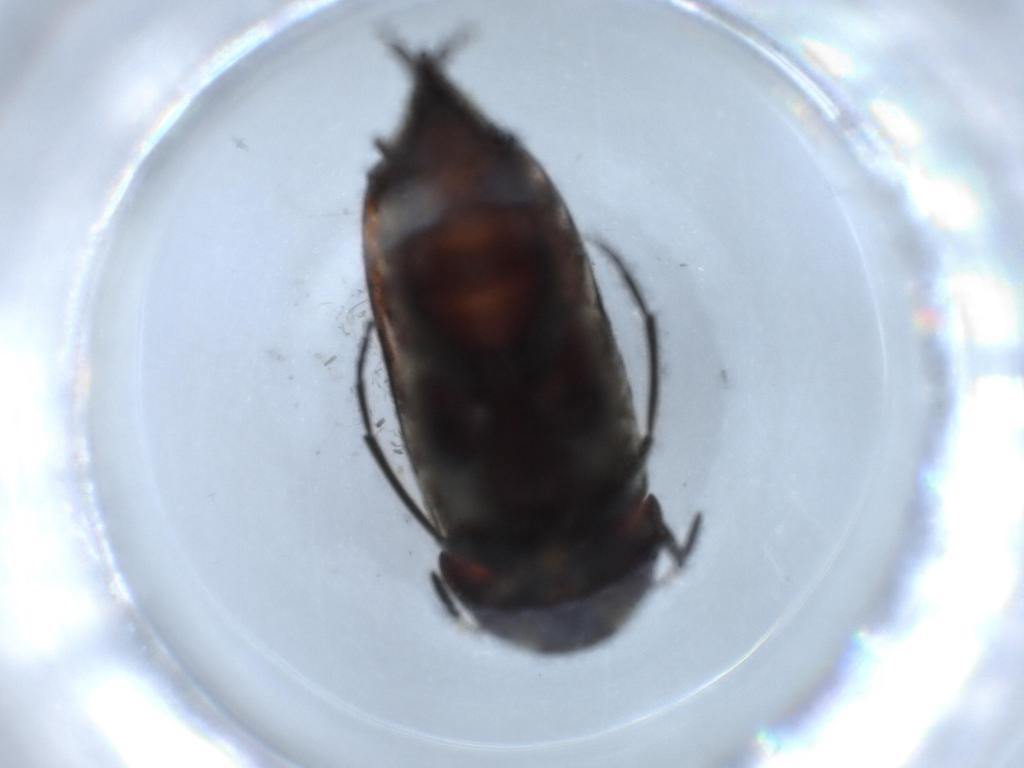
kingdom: Animalia
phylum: Arthropoda
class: Insecta
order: Coleoptera
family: Chrysomelidae
